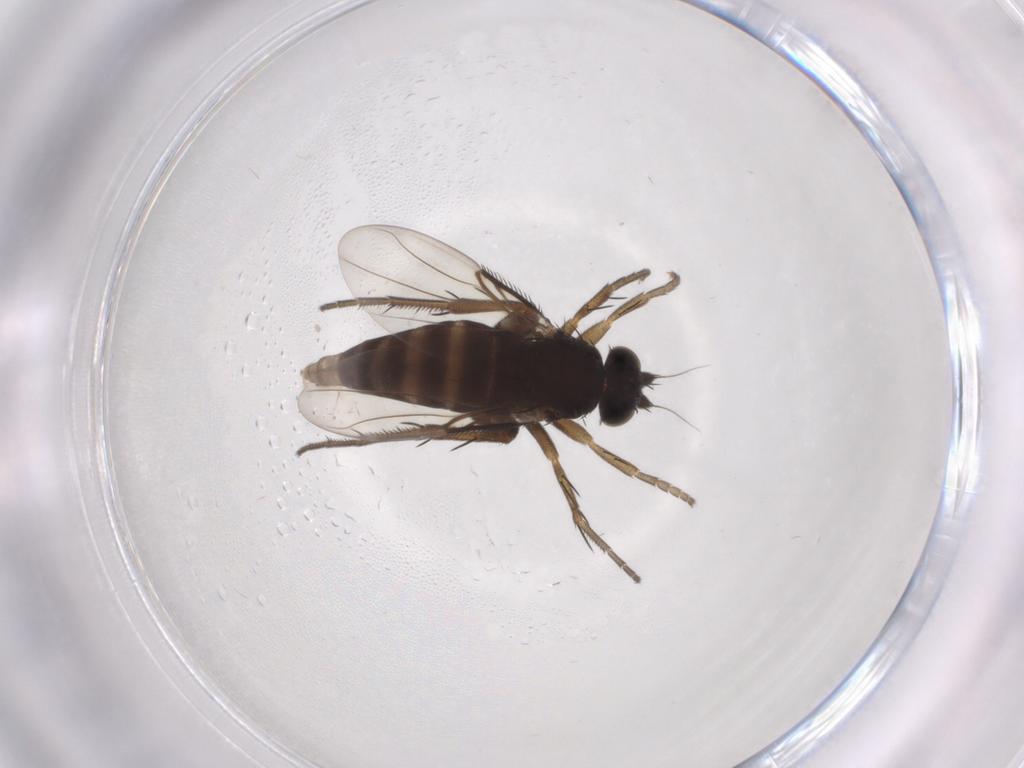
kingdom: Animalia
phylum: Arthropoda
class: Insecta
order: Diptera
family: Phoridae
